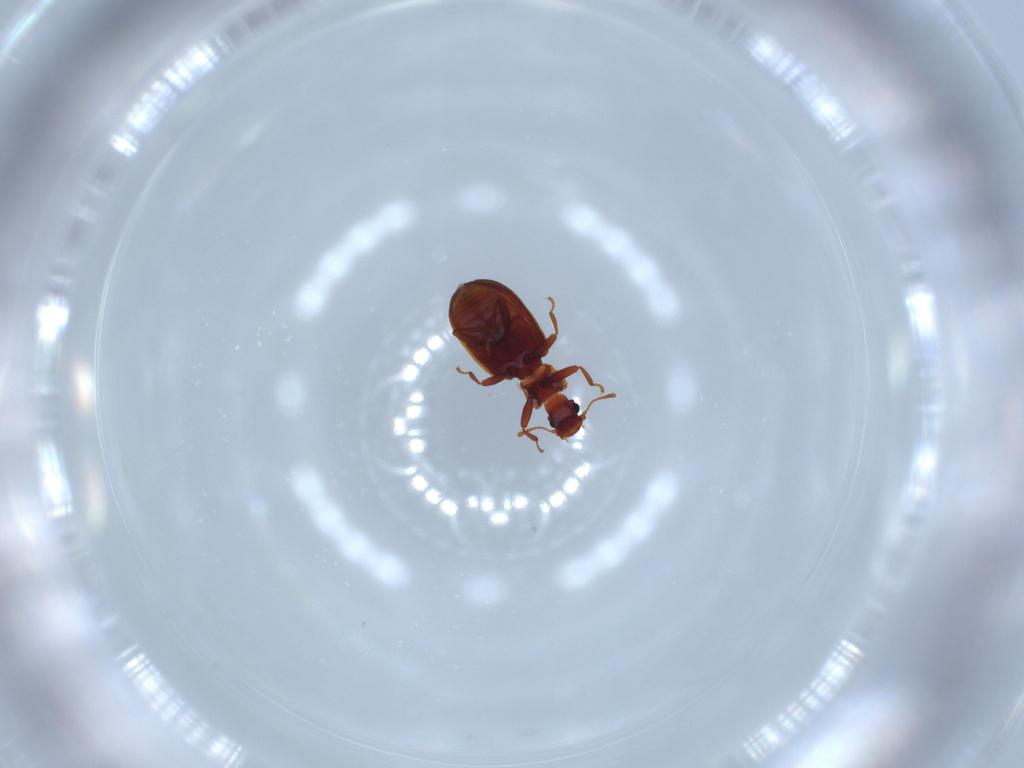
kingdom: Animalia
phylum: Arthropoda
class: Insecta
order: Coleoptera
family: Latridiidae
